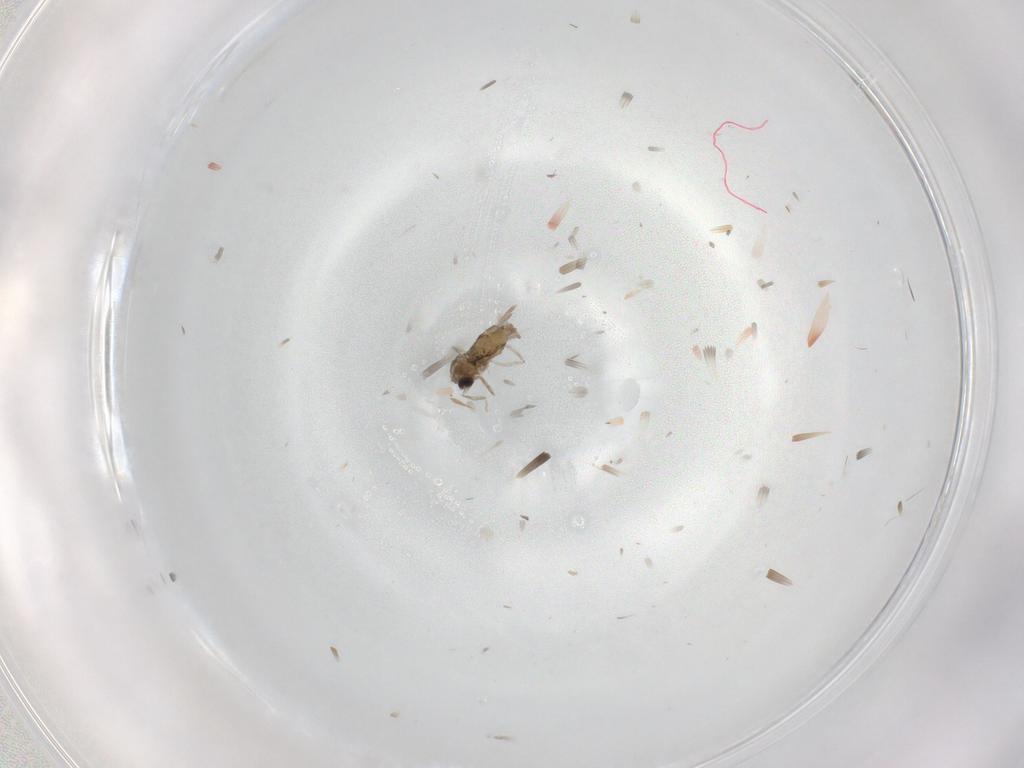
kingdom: Animalia
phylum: Arthropoda
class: Insecta
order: Diptera
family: Cecidomyiidae
